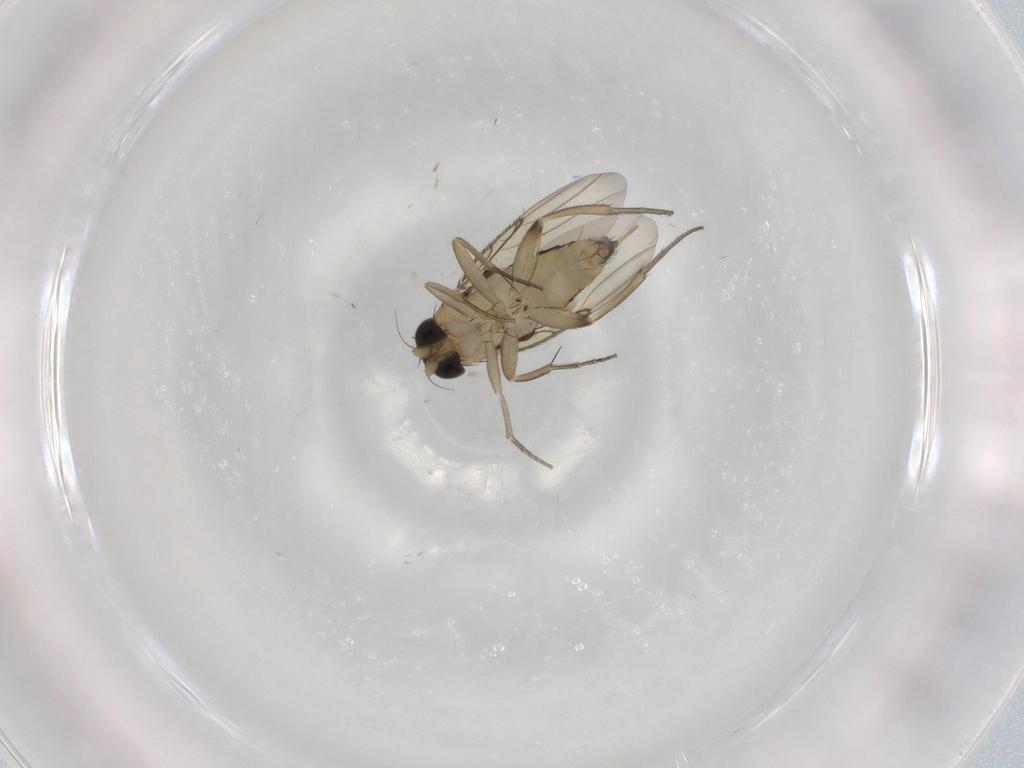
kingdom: Animalia
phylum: Arthropoda
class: Insecta
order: Diptera
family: Phoridae
